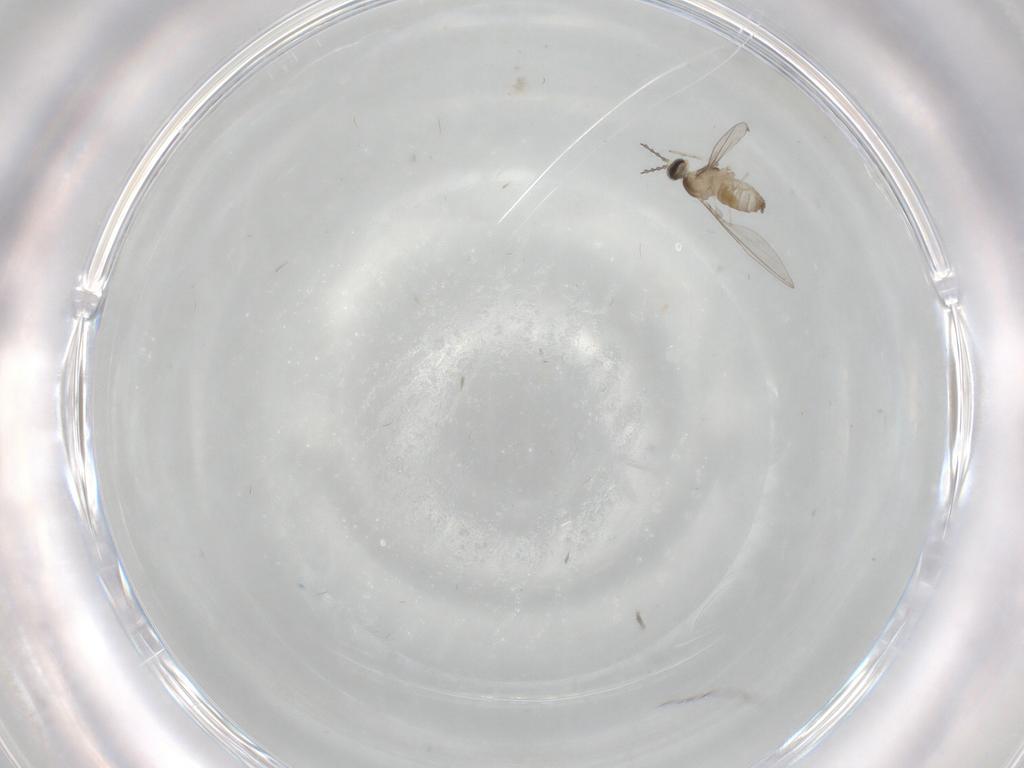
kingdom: Animalia
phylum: Arthropoda
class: Insecta
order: Diptera
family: Cecidomyiidae
